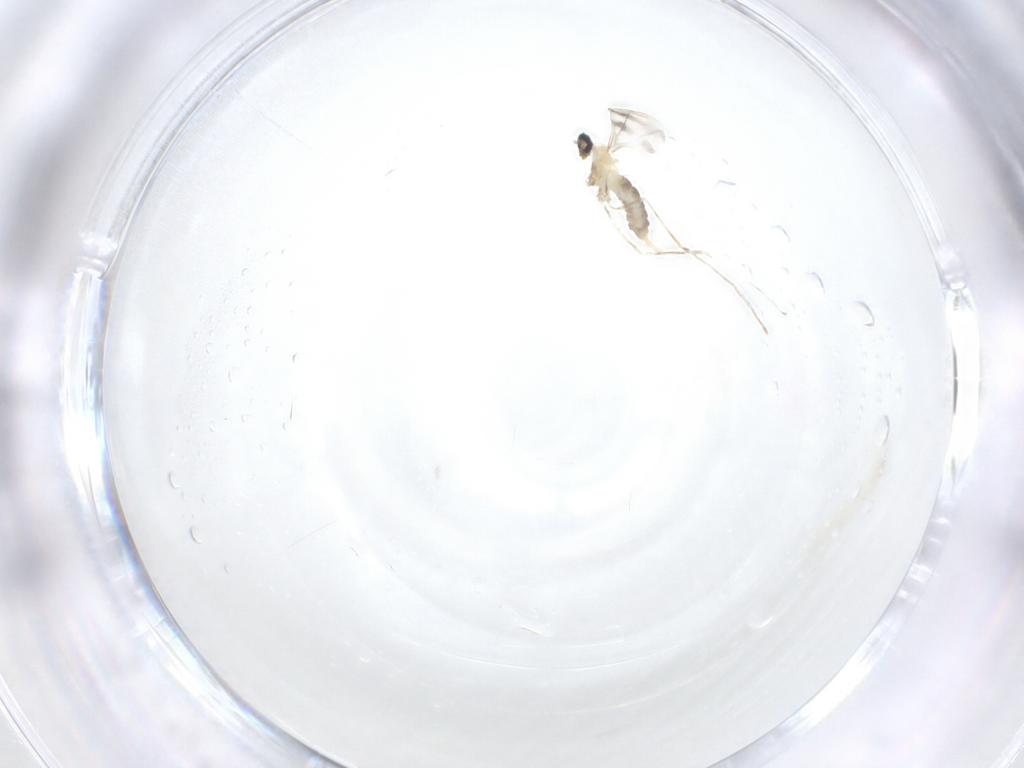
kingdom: Animalia
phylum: Arthropoda
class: Insecta
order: Diptera
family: Cecidomyiidae
